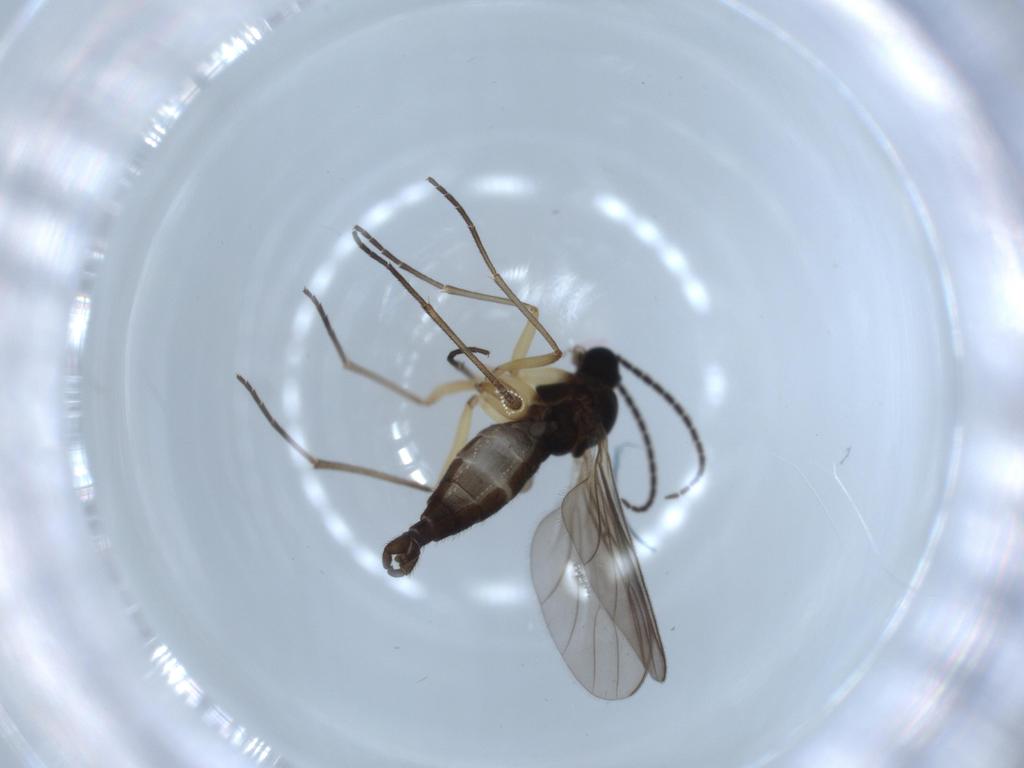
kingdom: Animalia
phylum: Arthropoda
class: Insecta
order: Diptera
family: Sciaridae
